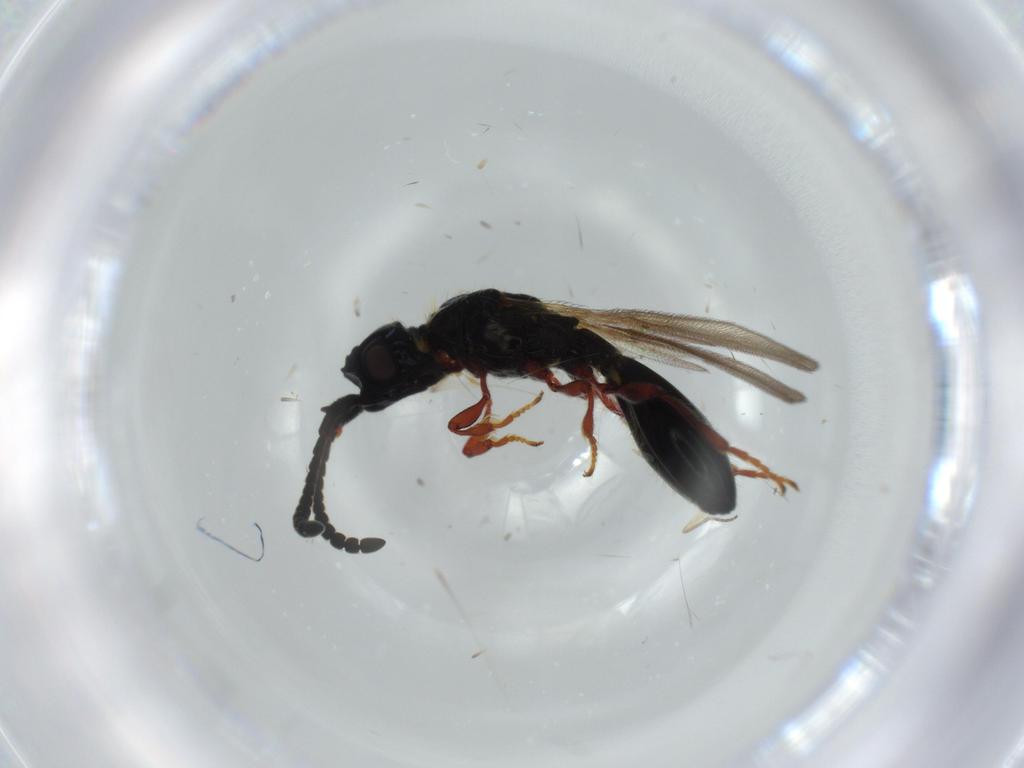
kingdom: Animalia
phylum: Arthropoda
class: Insecta
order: Hymenoptera
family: Diapriidae
